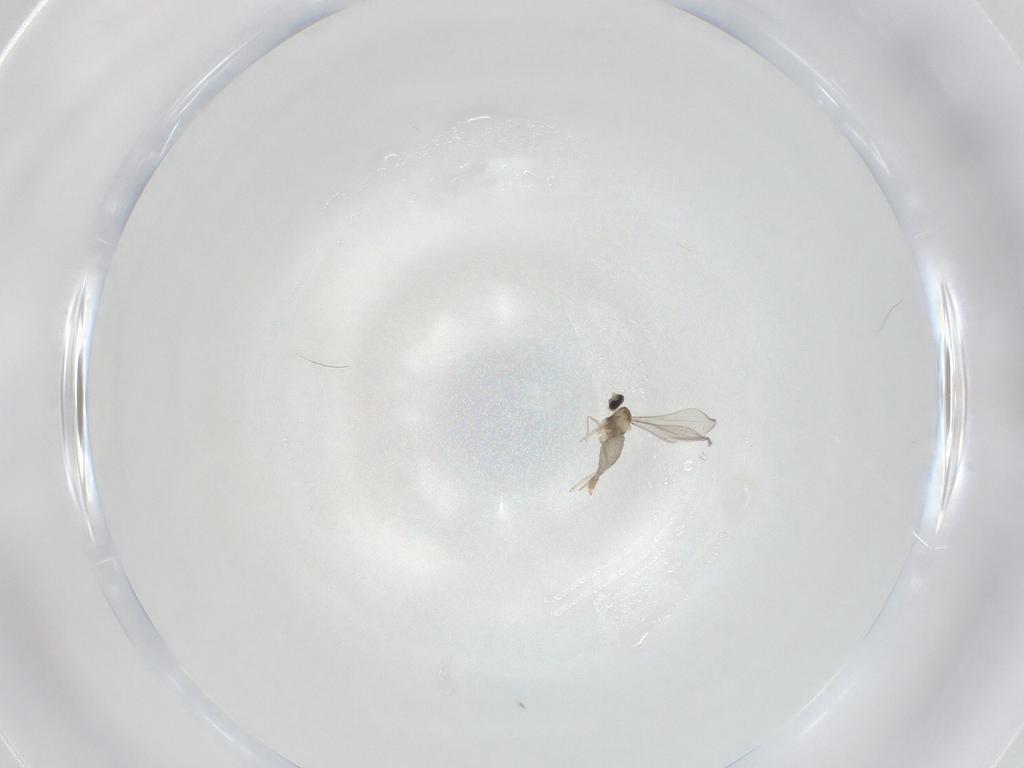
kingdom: Animalia
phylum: Arthropoda
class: Insecta
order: Diptera
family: Cecidomyiidae
